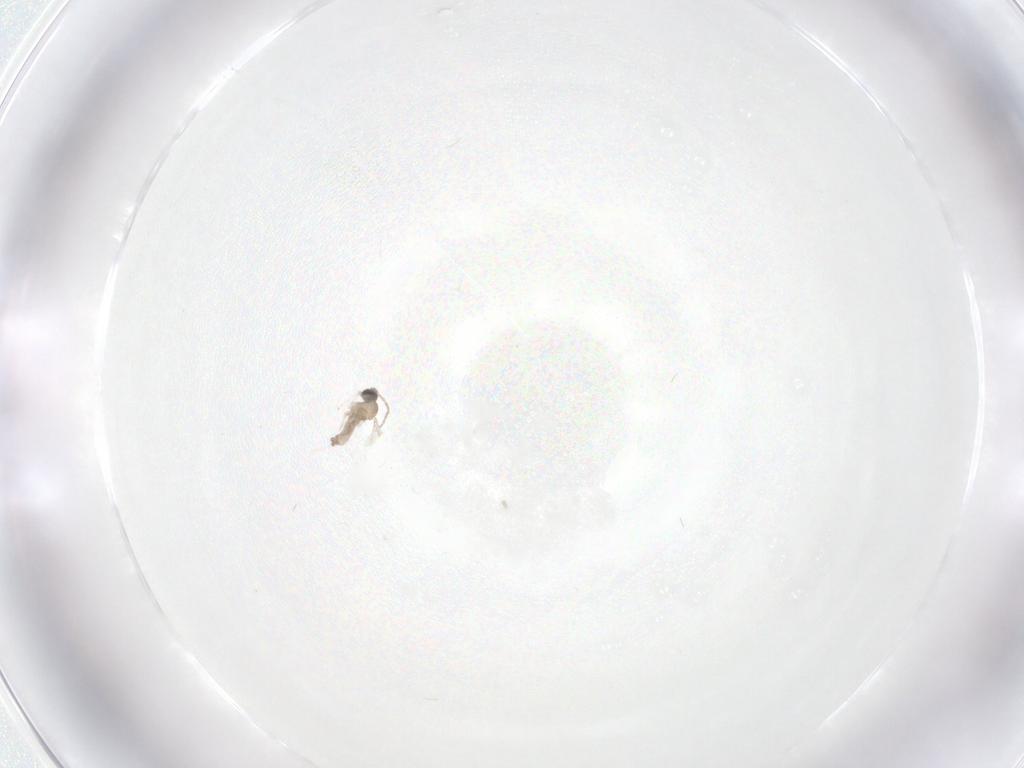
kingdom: Animalia
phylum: Arthropoda
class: Insecta
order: Diptera
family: Cecidomyiidae
